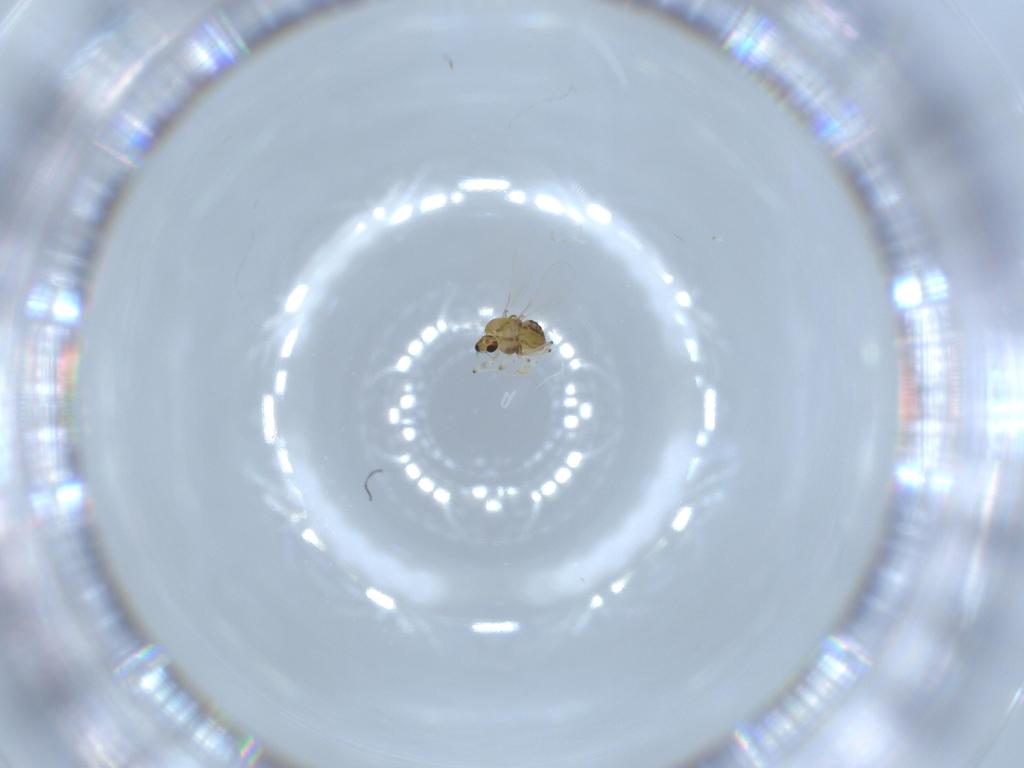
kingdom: Animalia
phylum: Arthropoda
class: Insecta
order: Diptera
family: Chironomidae
